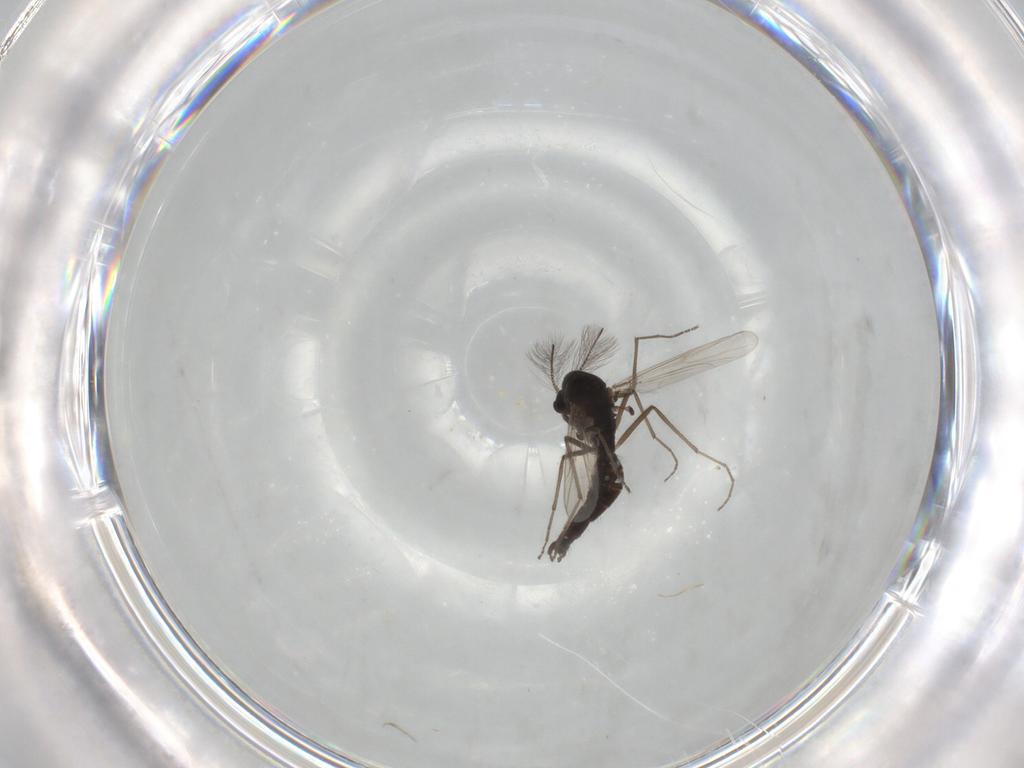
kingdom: Animalia
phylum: Arthropoda
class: Insecta
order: Diptera
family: Chironomidae
